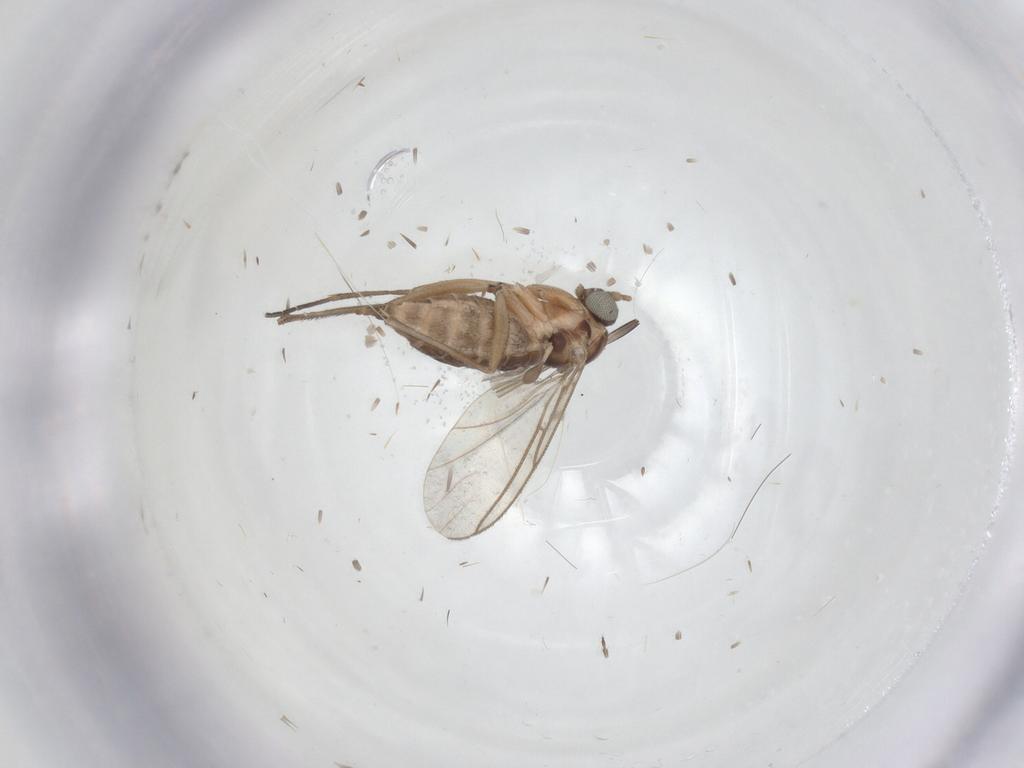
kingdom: Animalia
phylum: Arthropoda
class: Insecta
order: Diptera
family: Sciaridae
